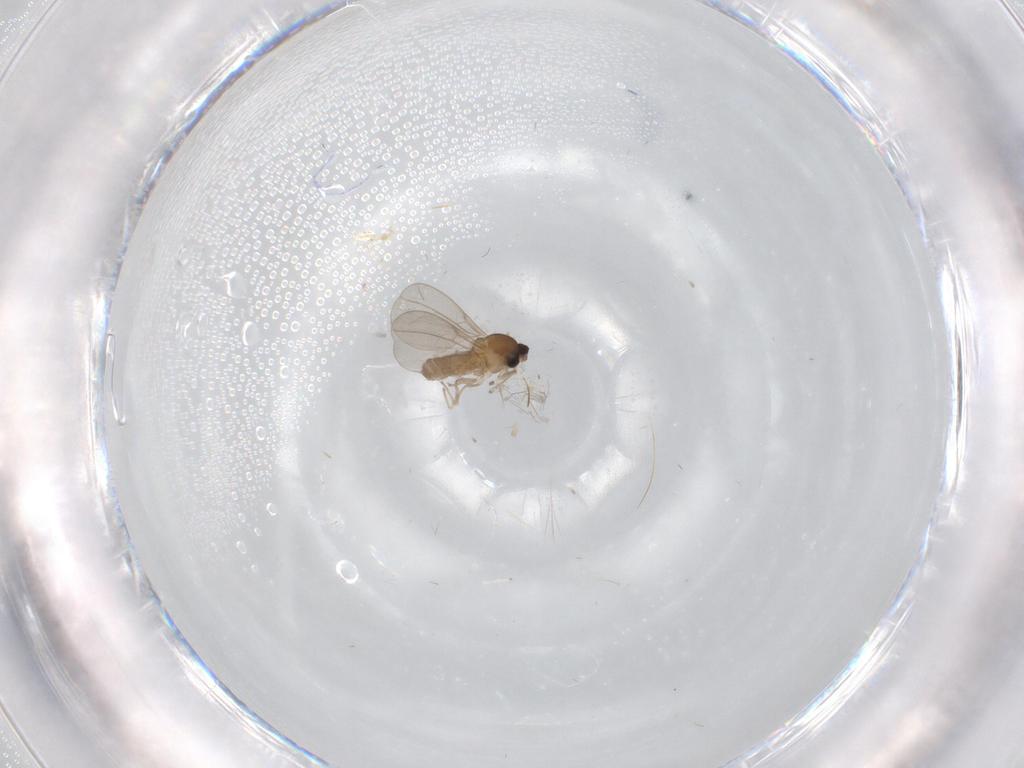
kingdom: Animalia
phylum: Arthropoda
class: Insecta
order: Diptera
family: Cecidomyiidae
